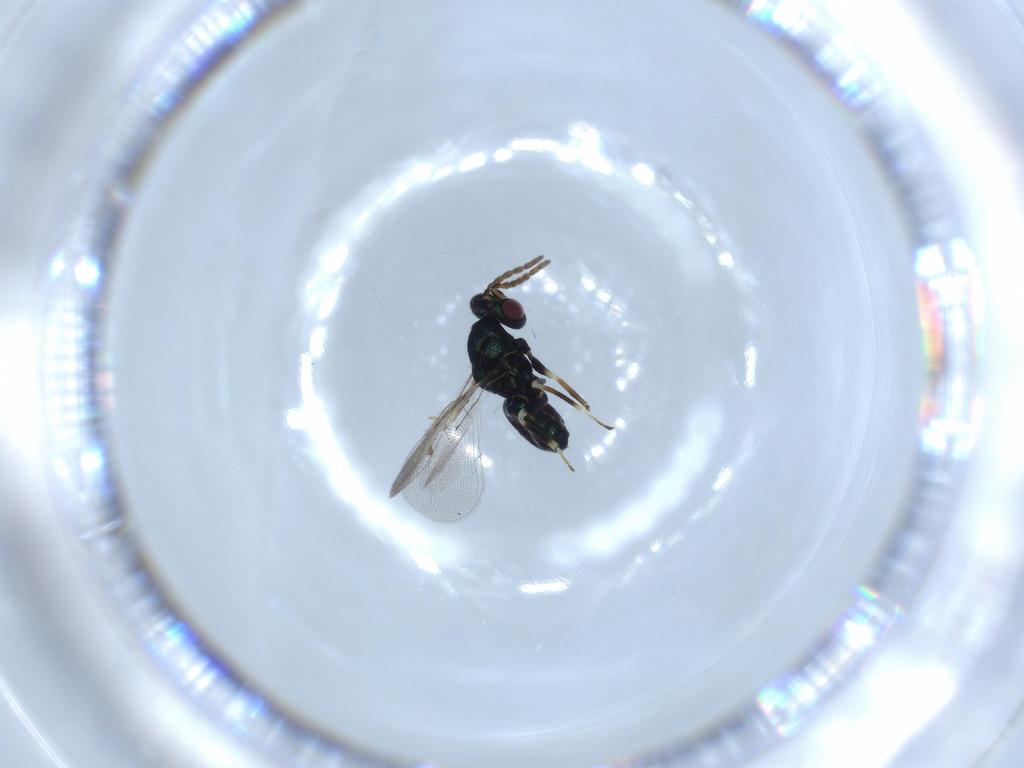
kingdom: Animalia
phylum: Arthropoda
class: Insecta
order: Hymenoptera
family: Eulophidae
